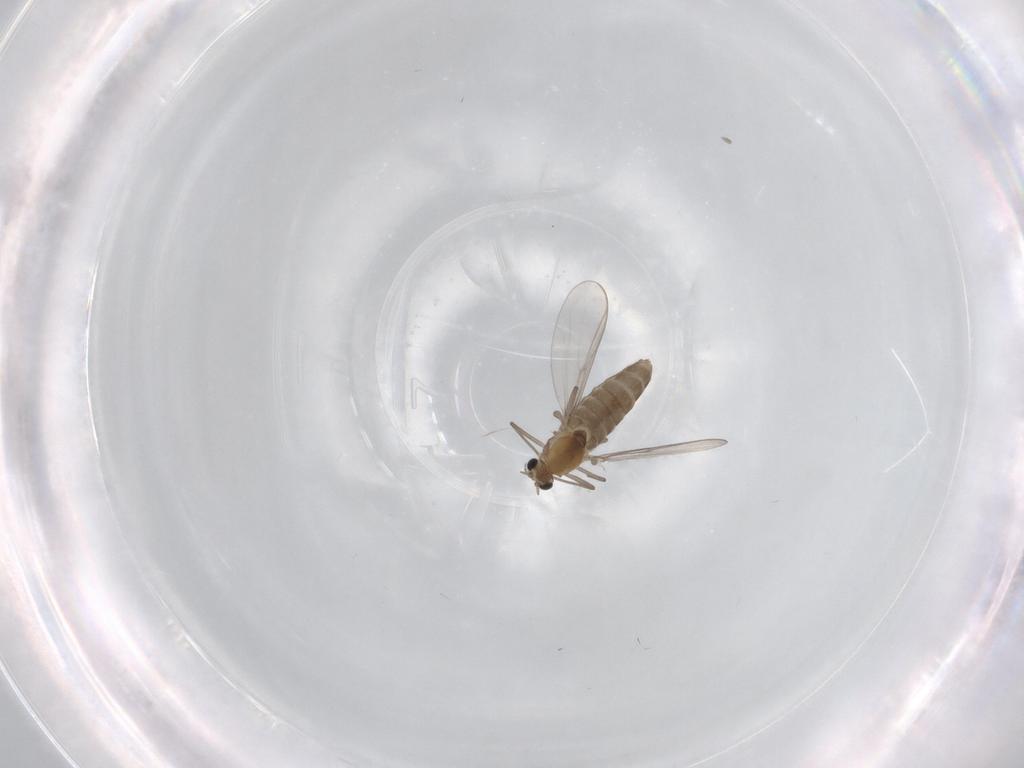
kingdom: Animalia
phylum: Arthropoda
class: Insecta
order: Diptera
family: Chironomidae
